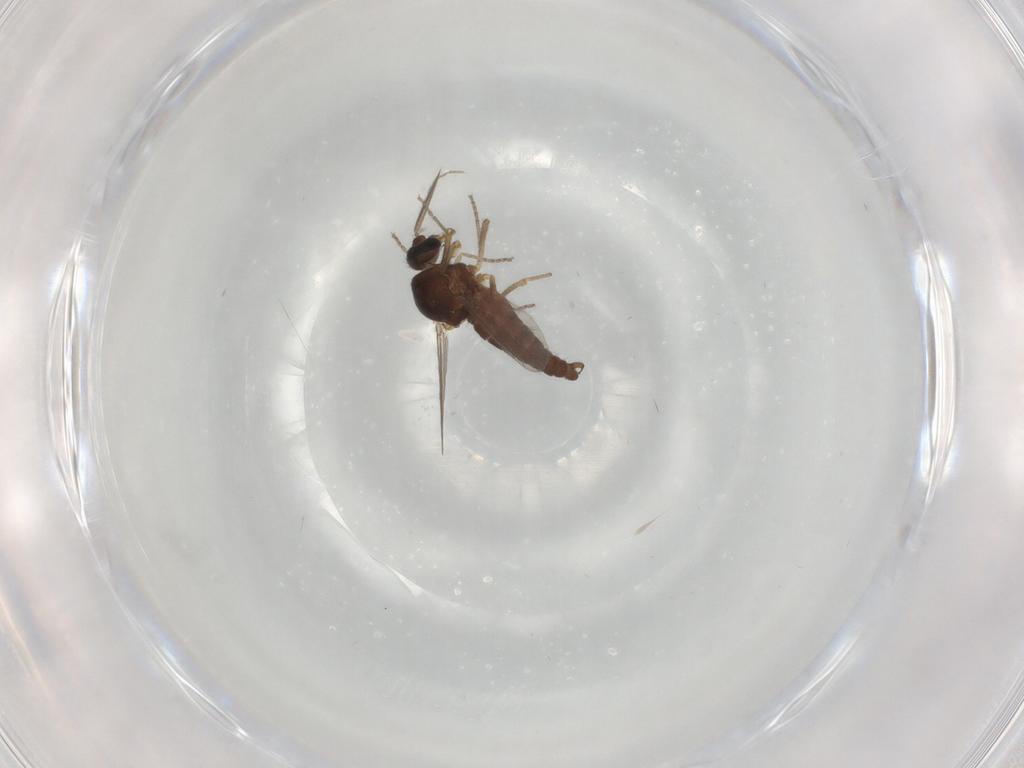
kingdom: Animalia
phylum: Arthropoda
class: Insecta
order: Diptera
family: Ceratopogonidae
